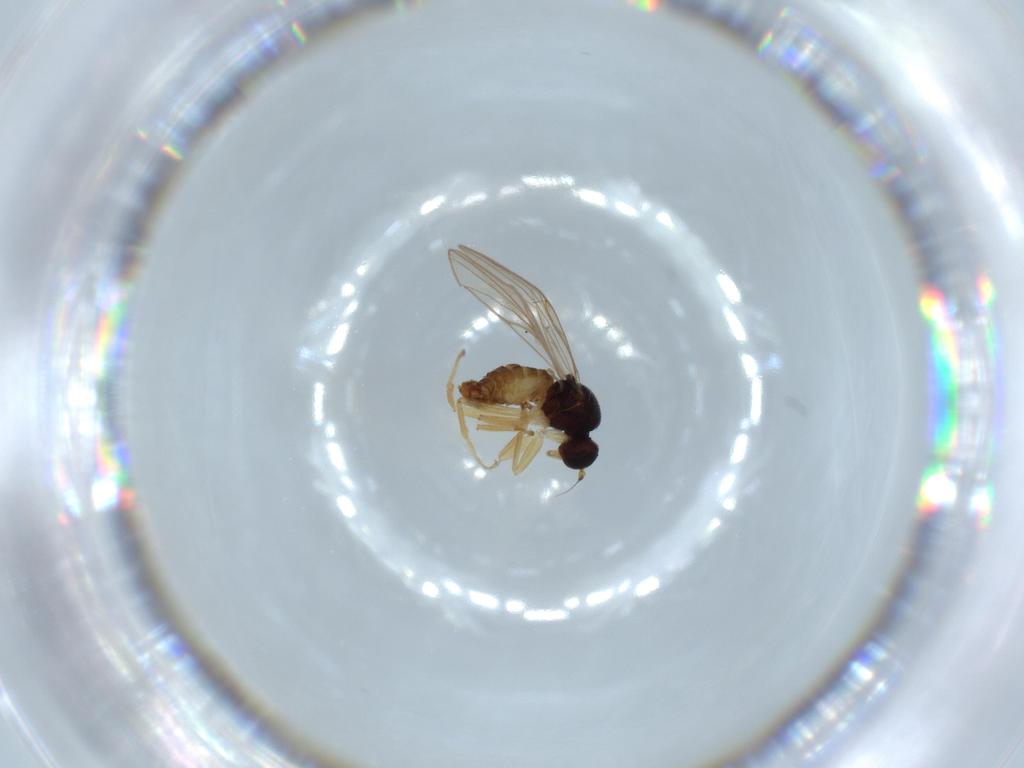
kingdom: Animalia
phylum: Arthropoda
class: Insecta
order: Diptera
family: Hybotidae
